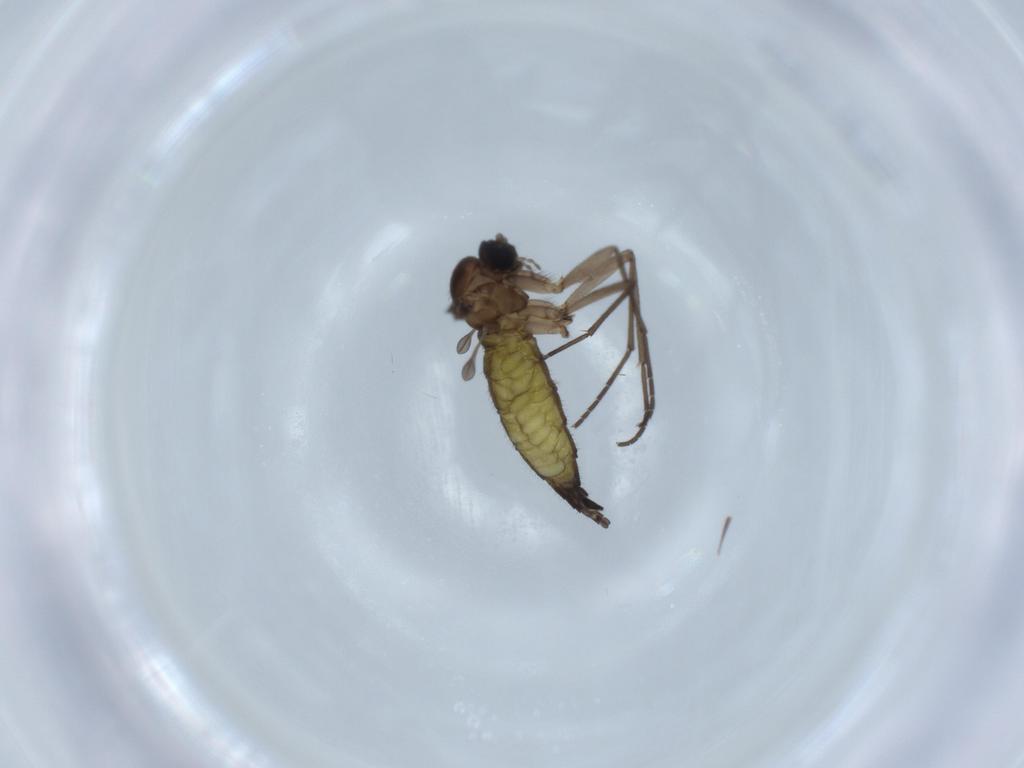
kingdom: Animalia
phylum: Arthropoda
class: Insecta
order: Diptera
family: Sciaridae
